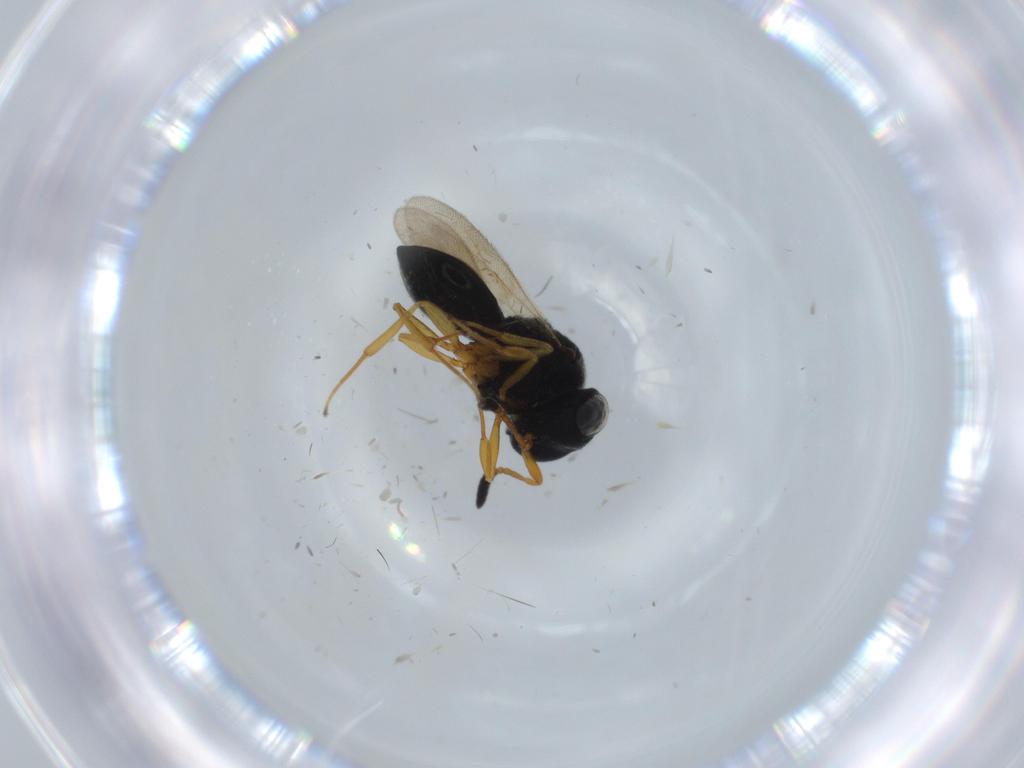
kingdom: Animalia
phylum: Arthropoda
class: Insecta
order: Hymenoptera
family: Scelionidae
